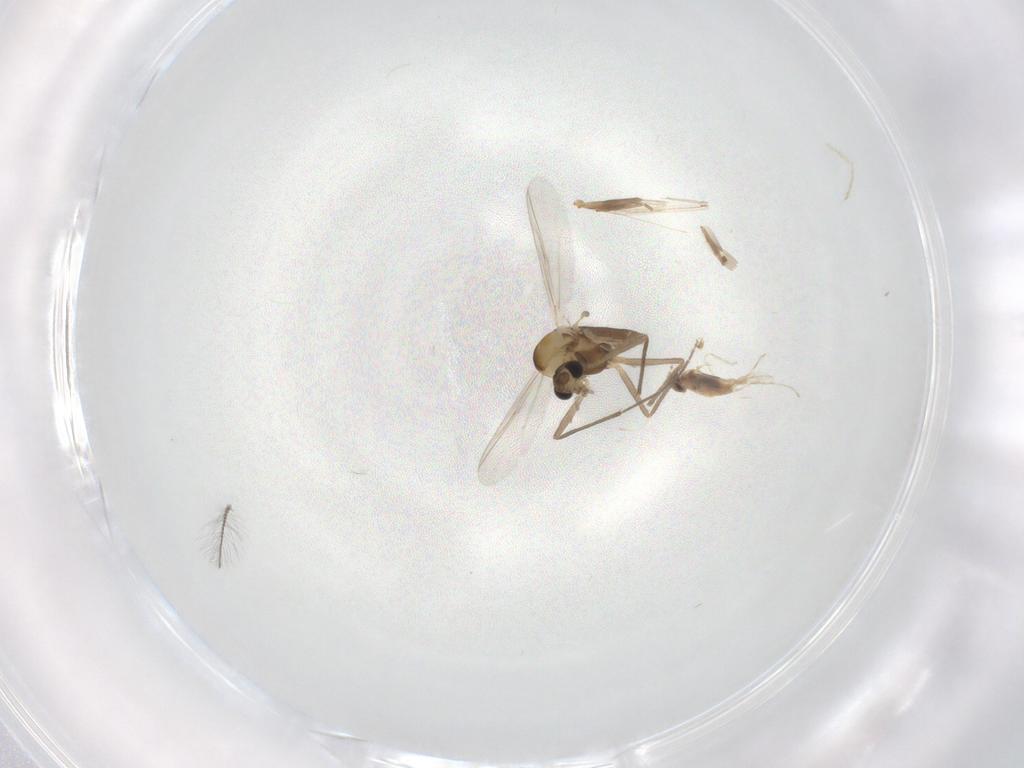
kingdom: Animalia
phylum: Arthropoda
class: Insecta
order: Diptera
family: Chironomidae
